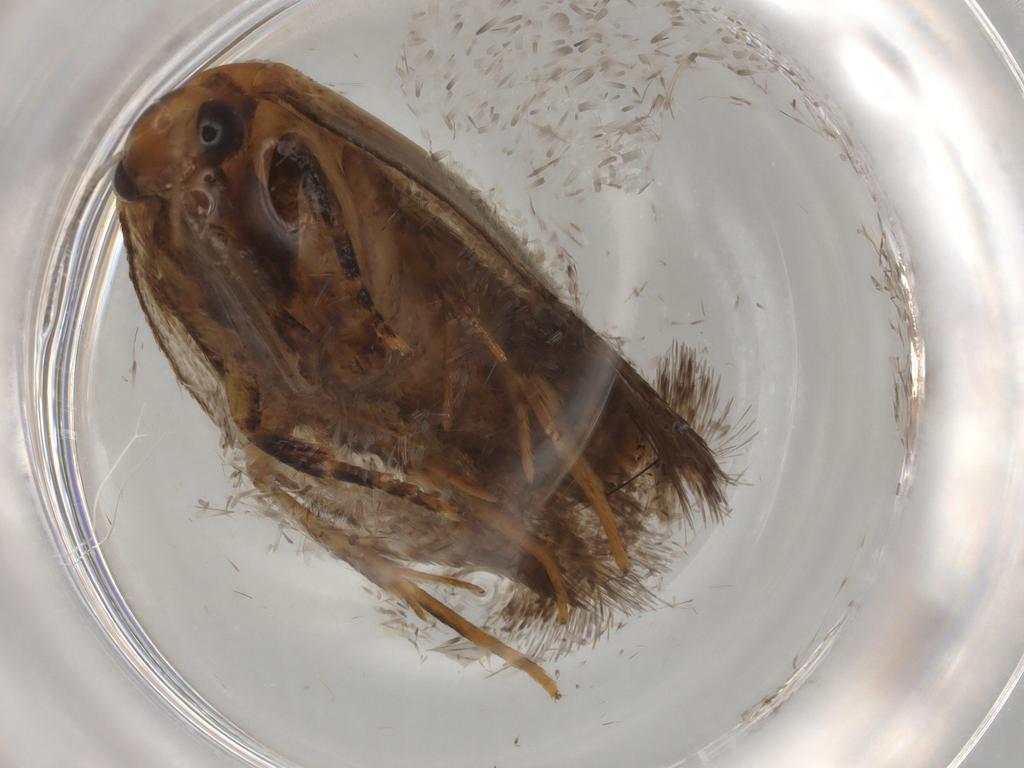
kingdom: Animalia
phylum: Arthropoda
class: Insecta
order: Lepidoptera
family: Oecophoridae
